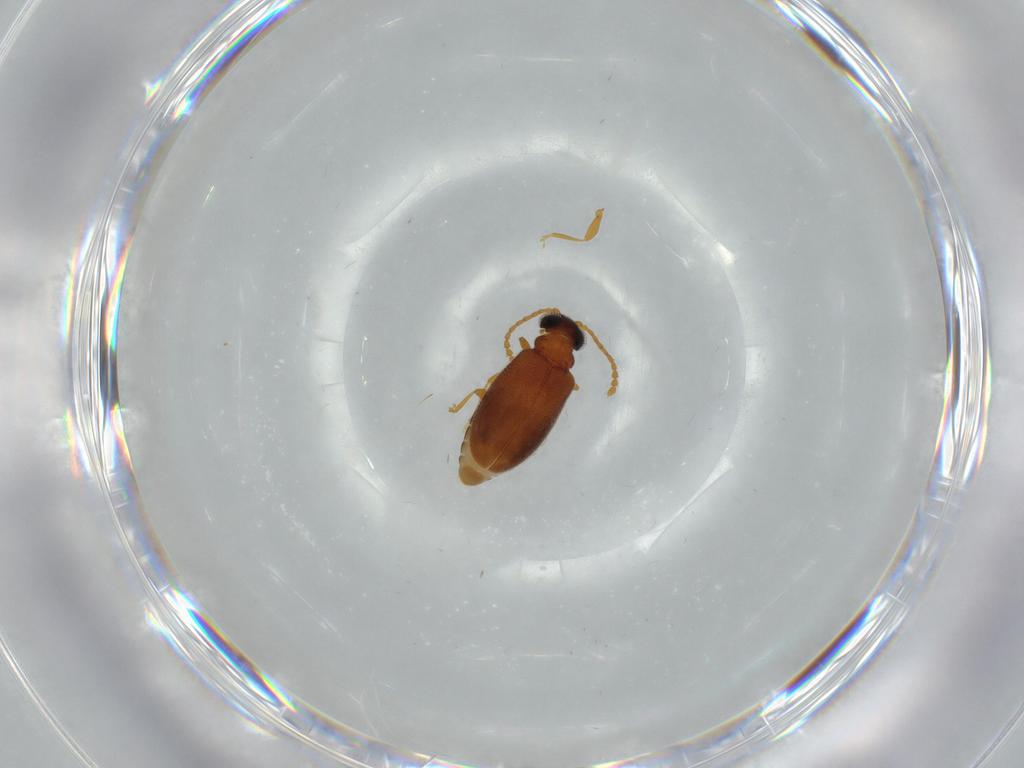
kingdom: Animalia
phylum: Arthropoda
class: Insecta
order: Coleoptera
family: Aderidae
